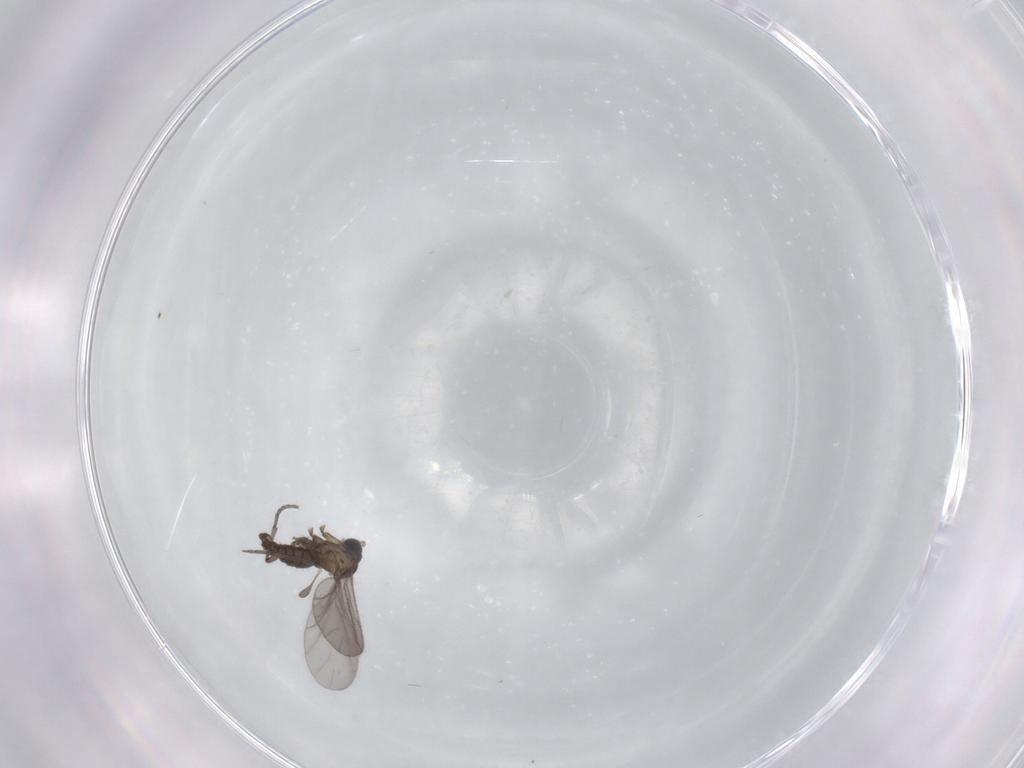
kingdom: Animalia
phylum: Arthropoda
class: Insecta
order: Diptera
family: Sciaridae
